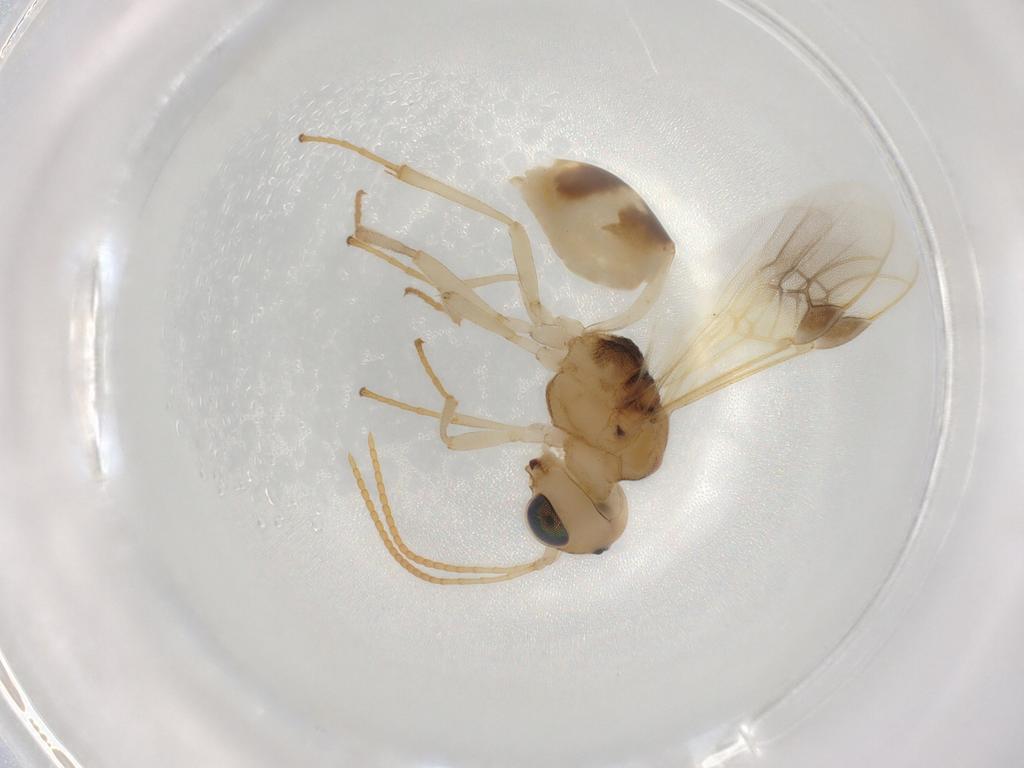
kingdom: Animalia
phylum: Arthropoda
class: Insecta
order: Hymenoptera
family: Braconidae
